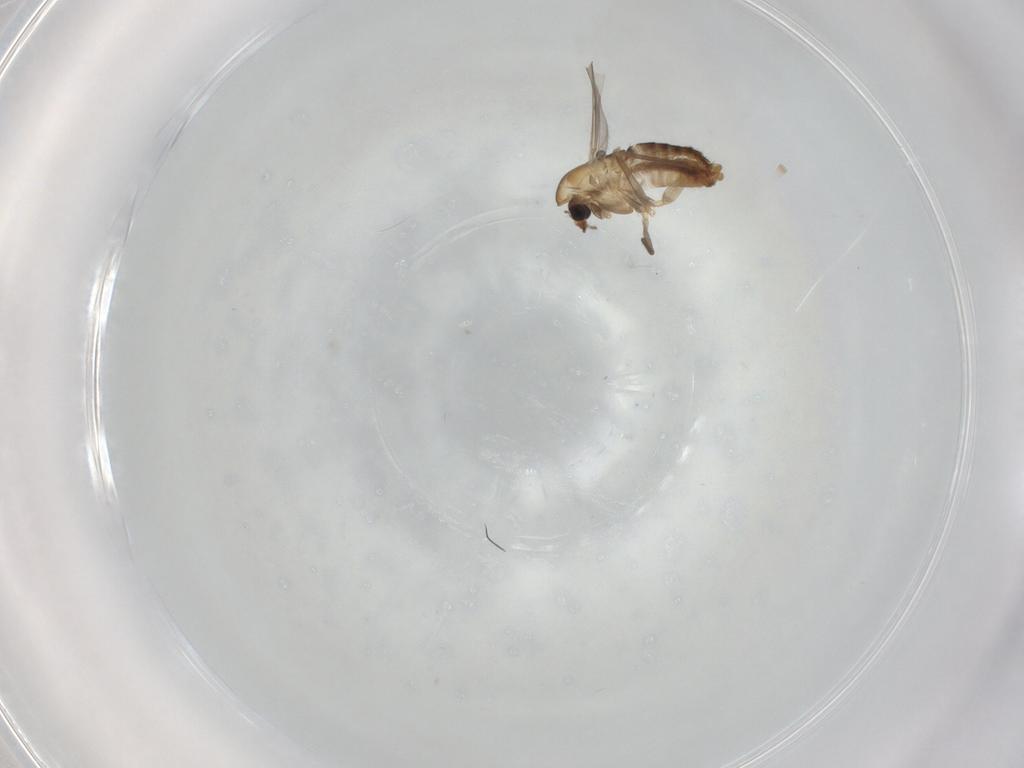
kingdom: Animalia
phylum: Arthropoda
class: Insecta
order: Diptera
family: Chironomidae
